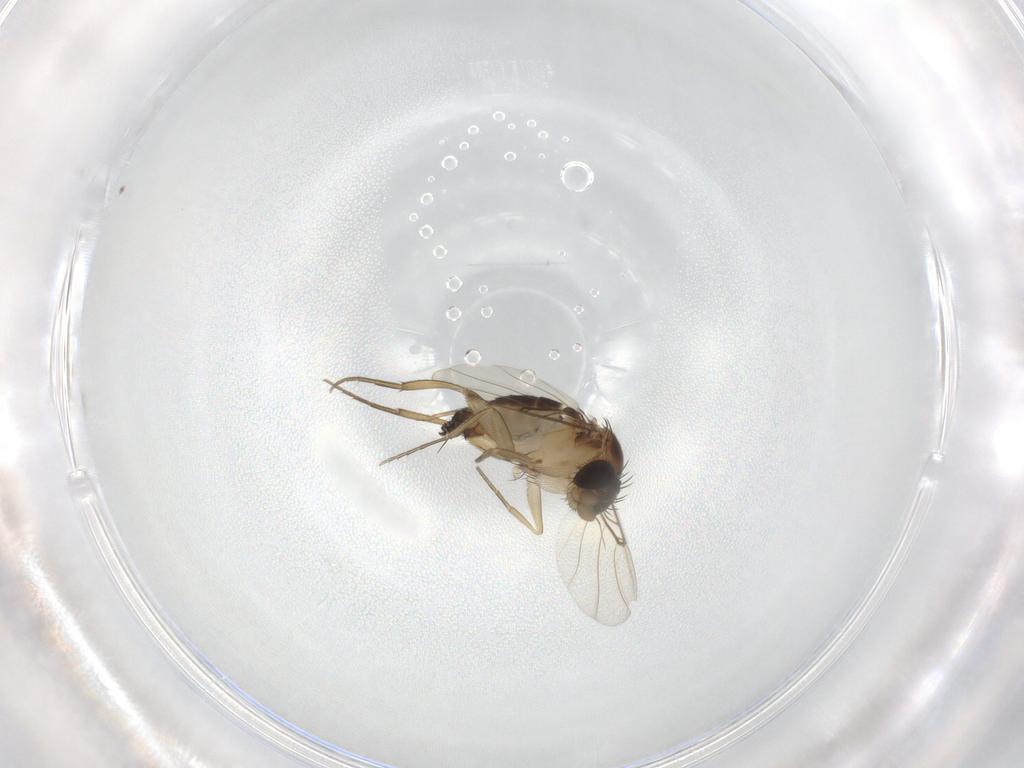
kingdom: Animalia
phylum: Arthropoda
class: Insecta
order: Diptera
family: Phoridae
